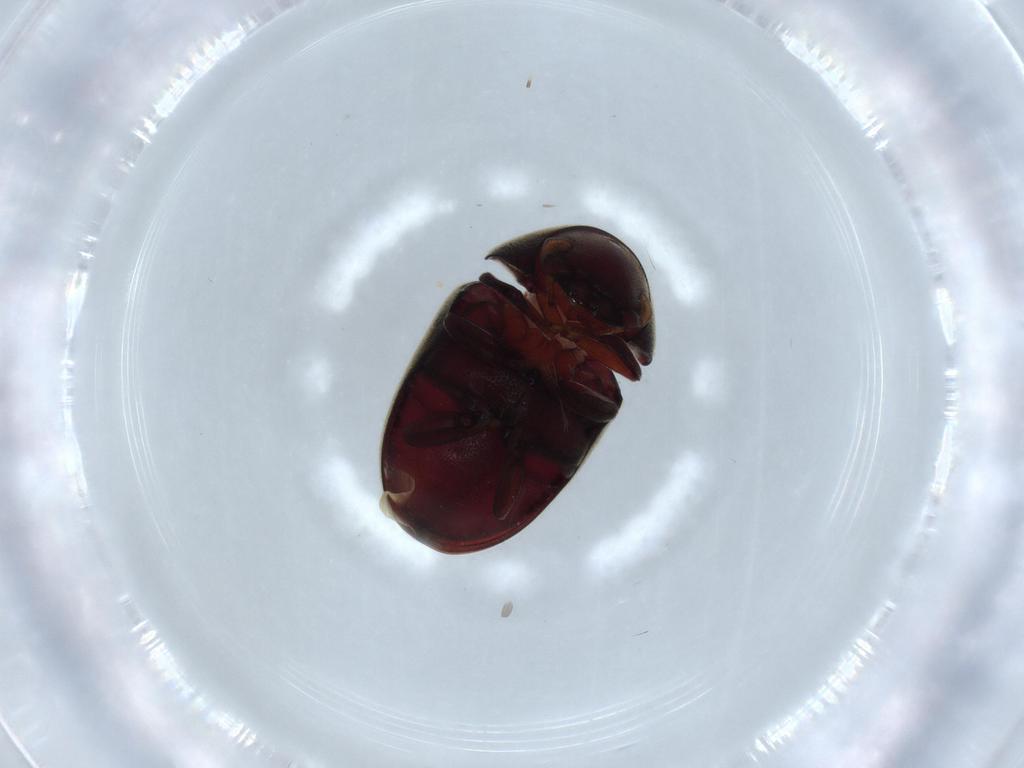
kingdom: Animalia
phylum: Arthropoda
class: Insecta
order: Coleoptera
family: Ptinidae
